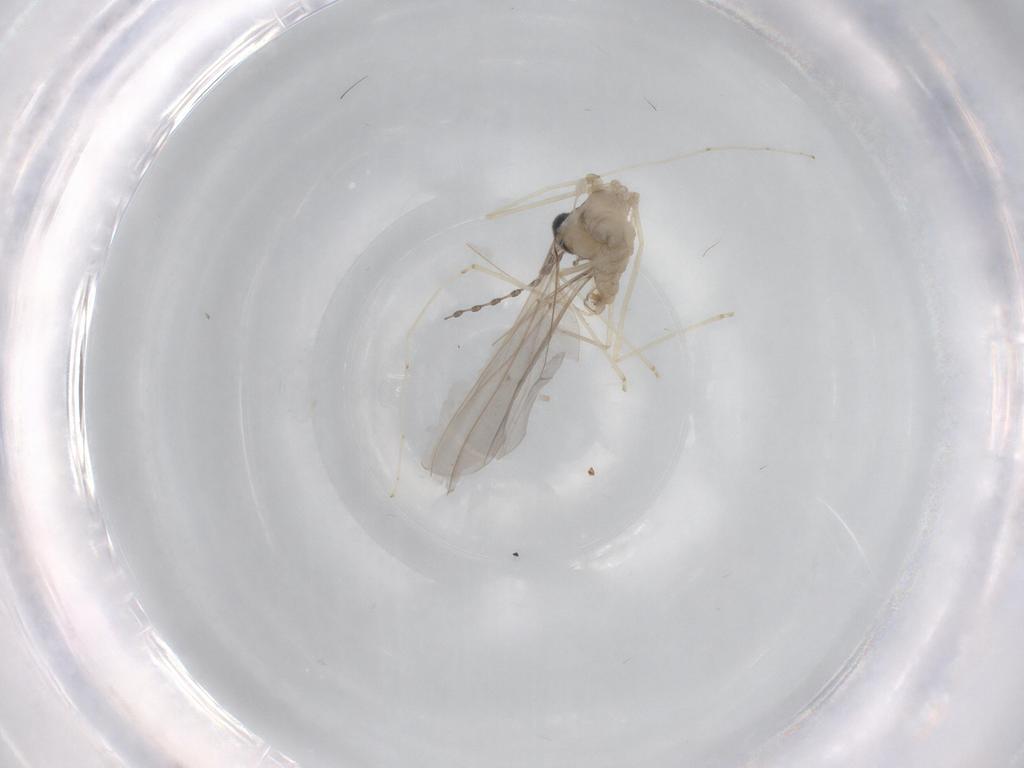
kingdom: Animalia
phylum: Arthropoda
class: Insecta
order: Diptera
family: Cecidomyiidae
